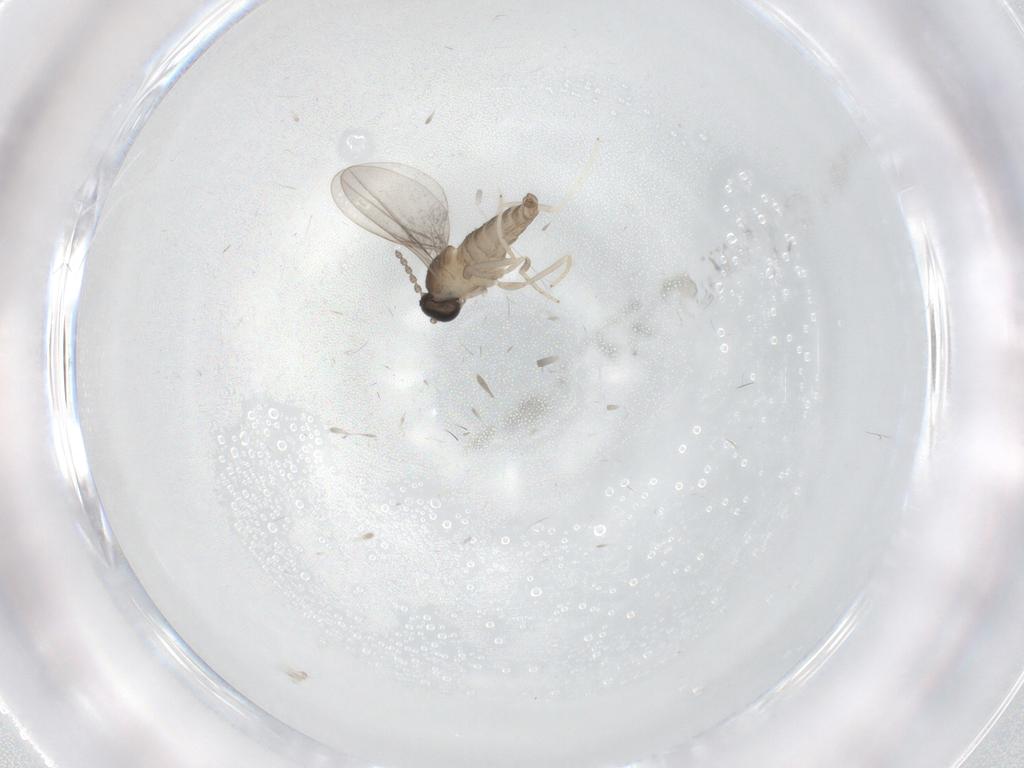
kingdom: Animalia
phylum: Arthropoda
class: Insecta
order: Diptera
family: Cecidomyiidae
